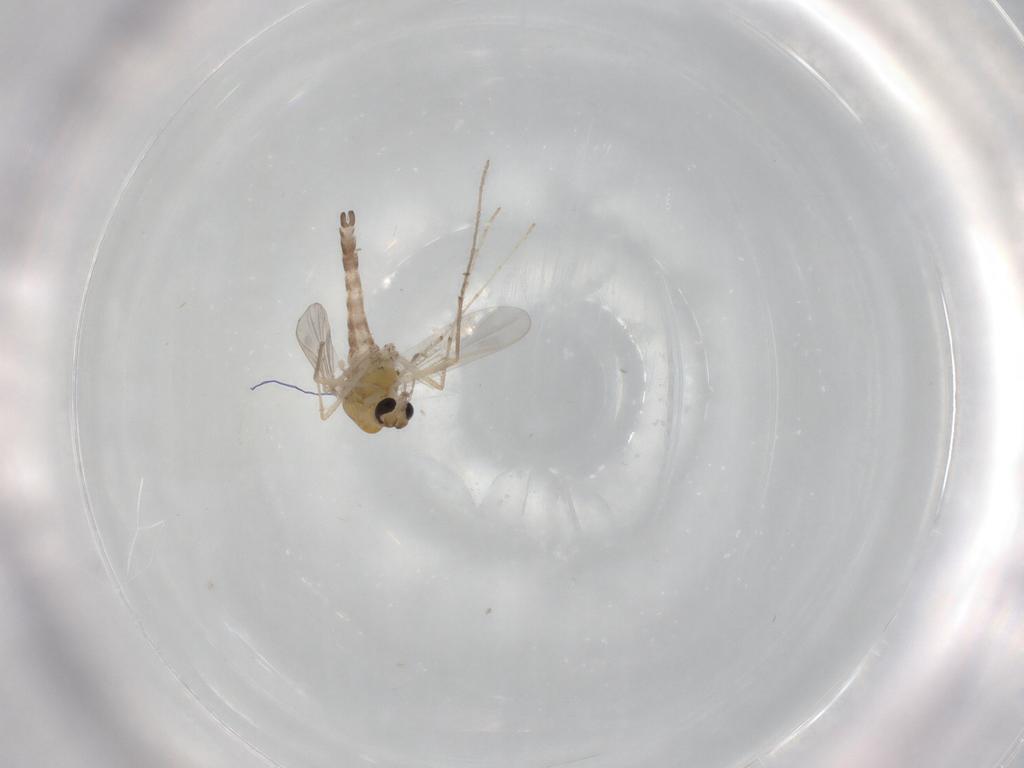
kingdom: Animalia
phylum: Arthropoda
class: Insecta
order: Diptera
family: Chironomidae
